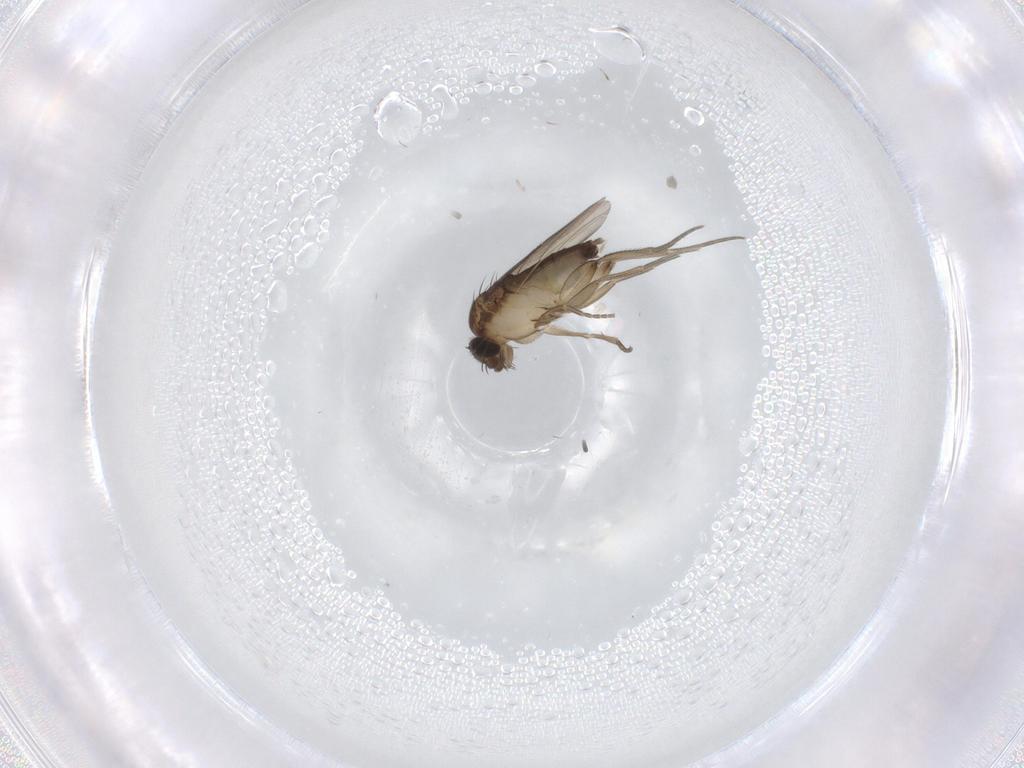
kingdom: Animalia
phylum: Arthropoda
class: Insecta
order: Diptera
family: Phoridae
